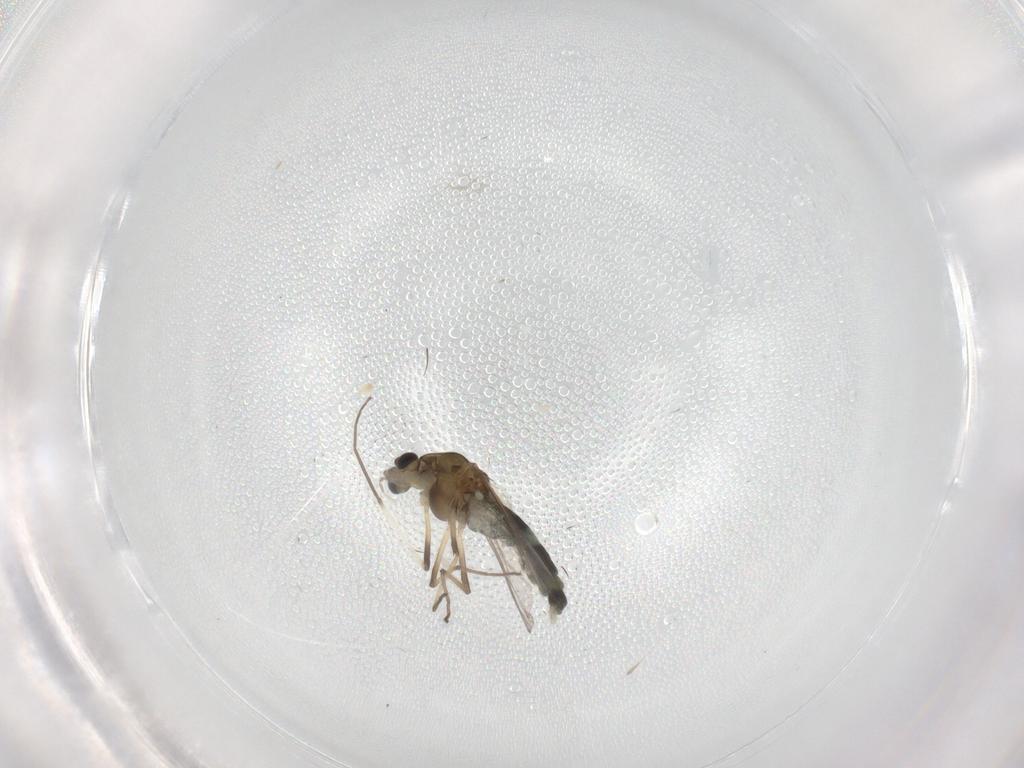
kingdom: Animalia
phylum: Arthropoda
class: Insecta
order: Diptera
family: Chironomidae
